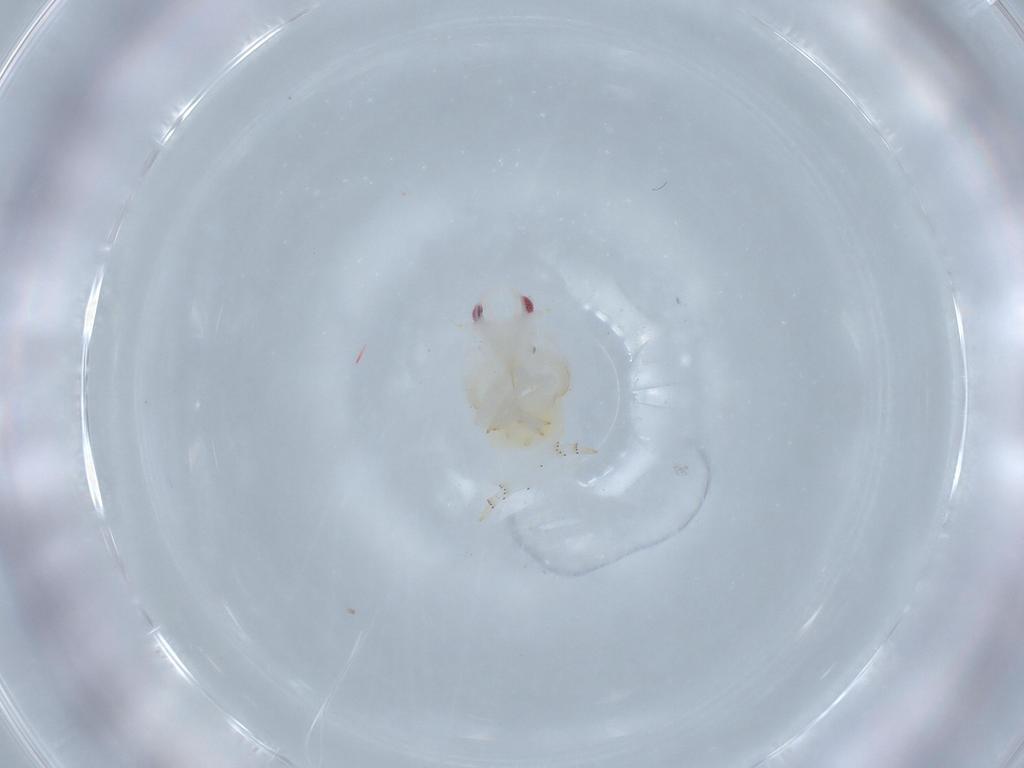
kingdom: Animalia
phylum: Arthropoda
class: Insecta
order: Hemiptera
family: Flatidae
